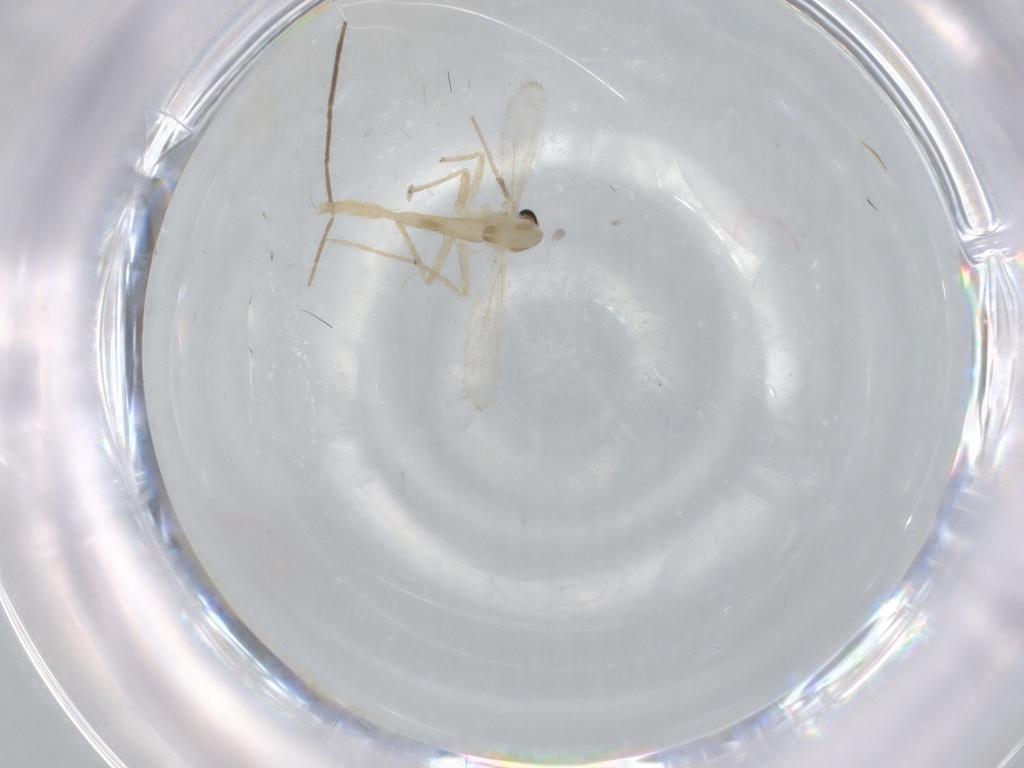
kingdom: Animalia
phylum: Arthropoda
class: Insecta
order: Diptera
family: Chironomidae
